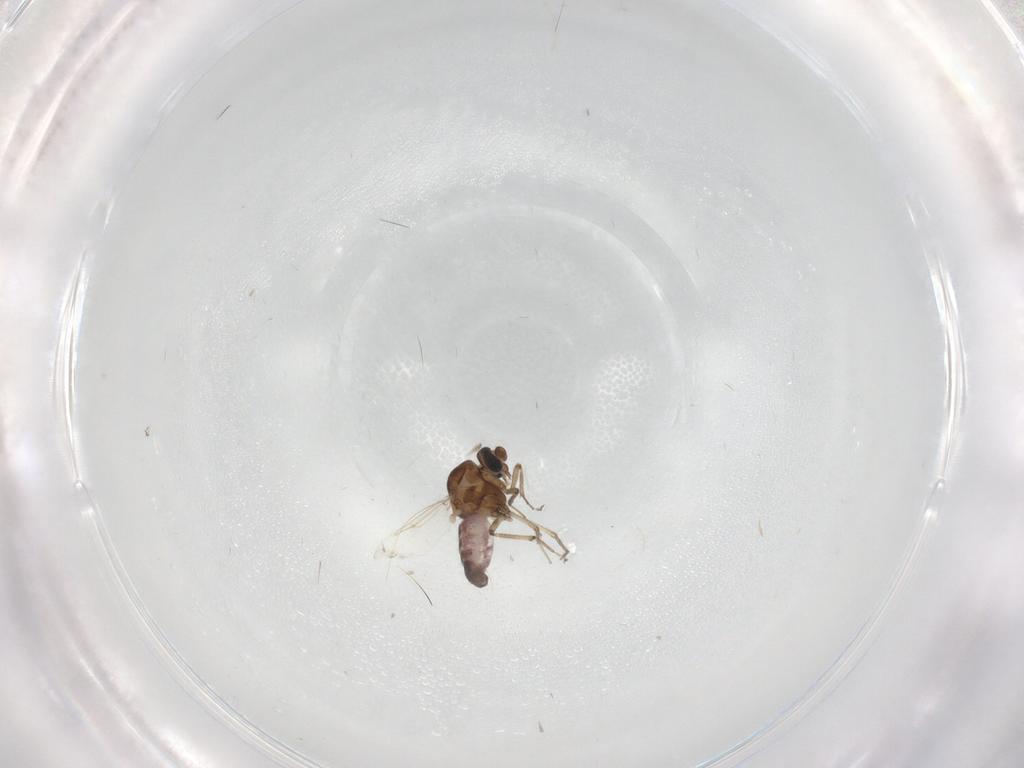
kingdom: Animalia
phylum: Arthropoda
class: Insecta
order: Diptera
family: Ceratopogonidae
